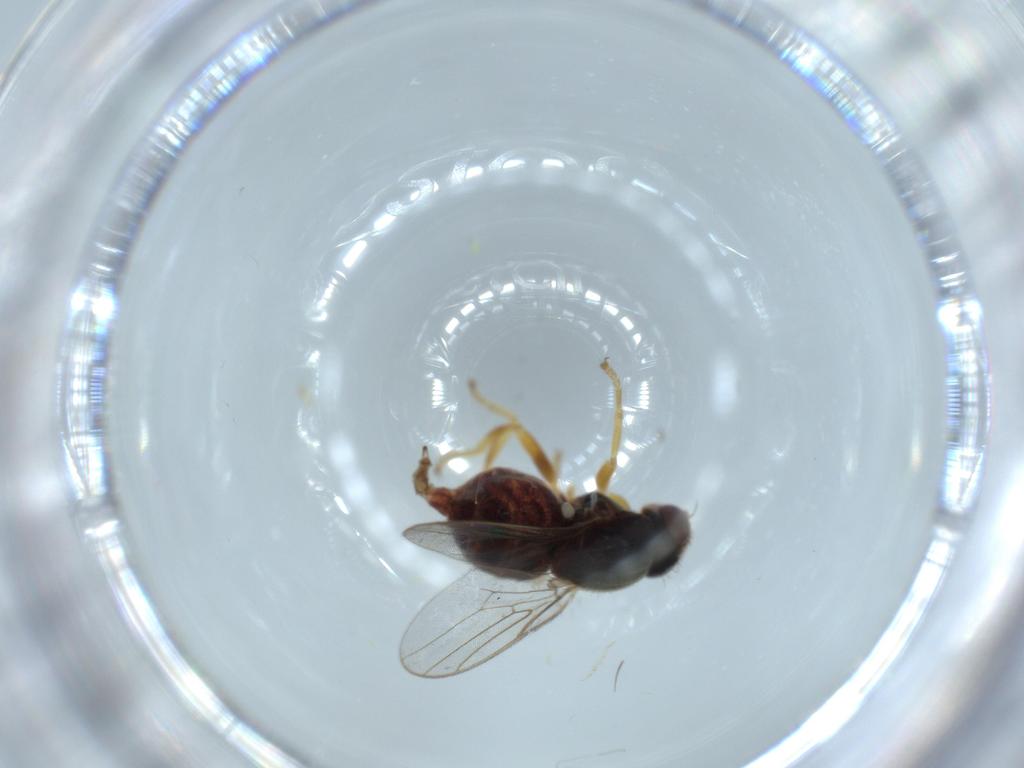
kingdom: Animalia
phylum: Arthropoda
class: Insecta
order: Diptera
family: Chloropidae
